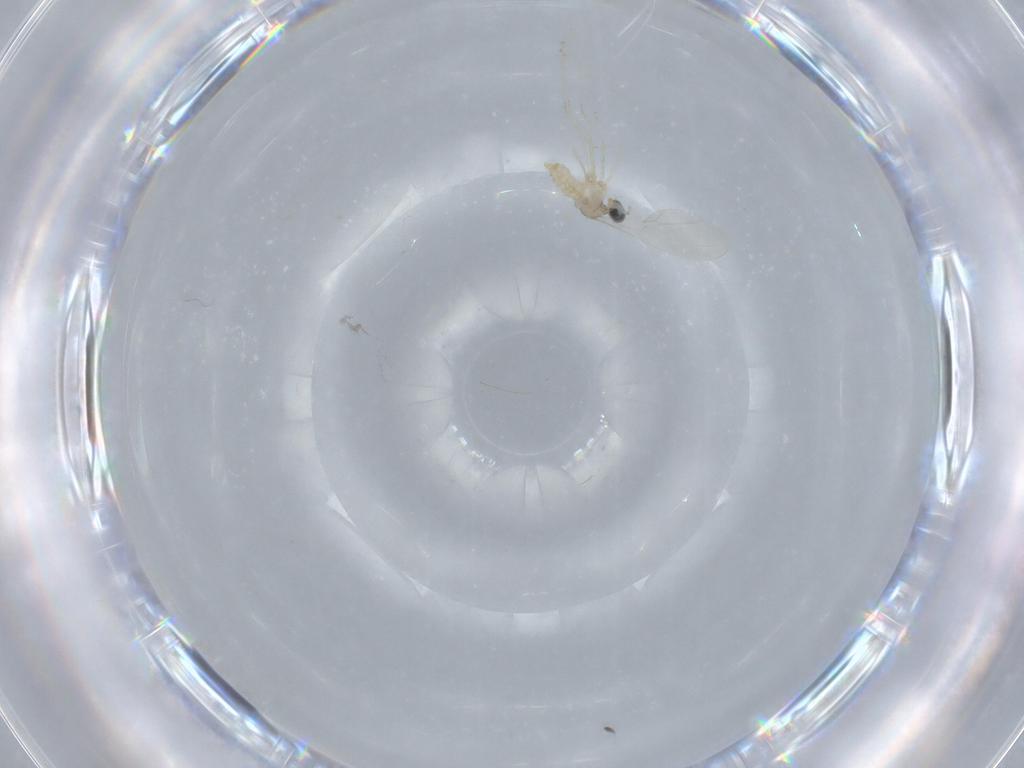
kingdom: Animalia
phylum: Arthropoda
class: Insecta
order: Diptera
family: Cecidomyiidae
